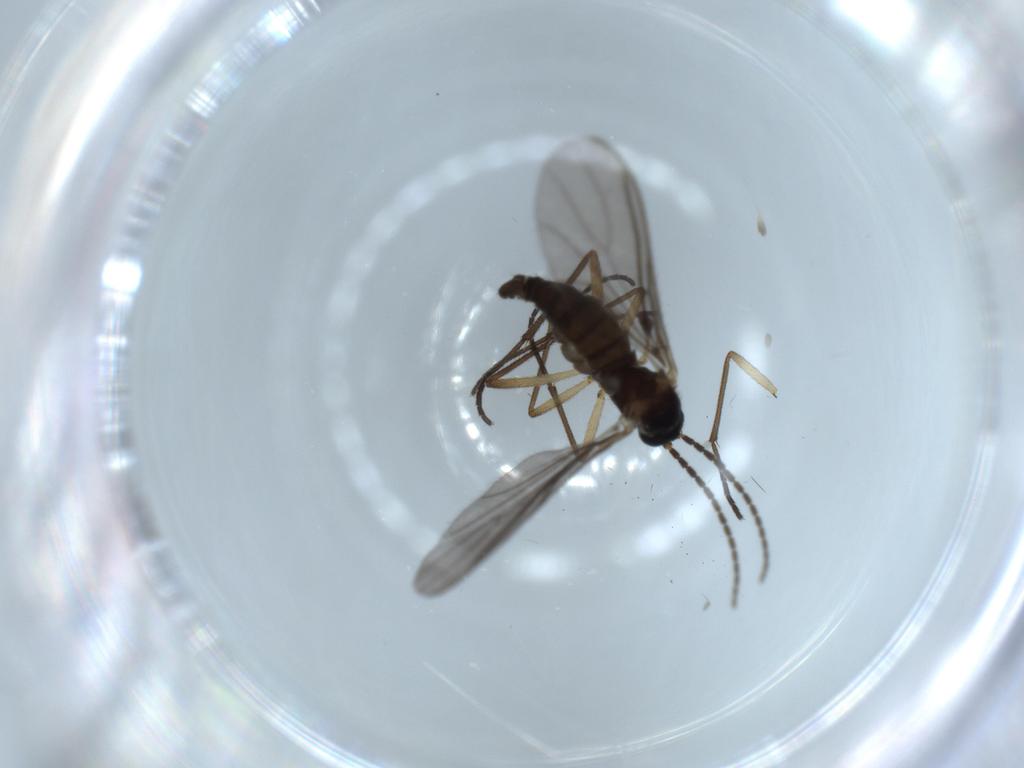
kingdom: Animalia
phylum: Arthropoda
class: Insecta
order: Diptera
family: Sciaridae
